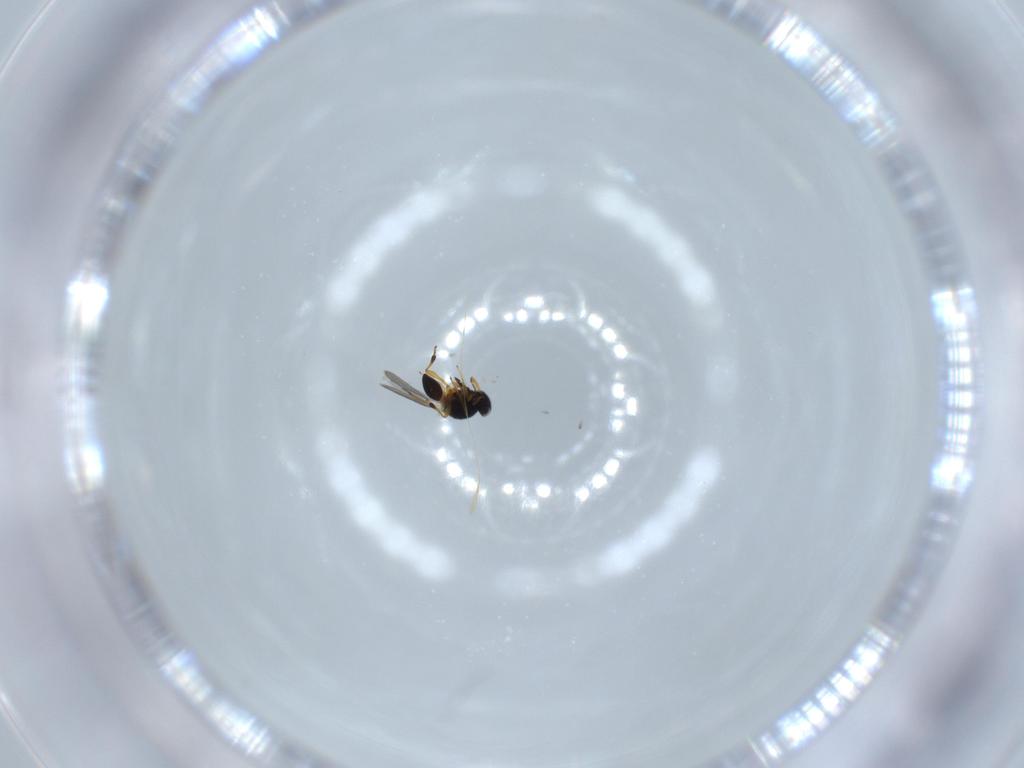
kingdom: Animalia
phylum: Arthropoda
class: Insecta
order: Hymenoptera
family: Platygastridae
